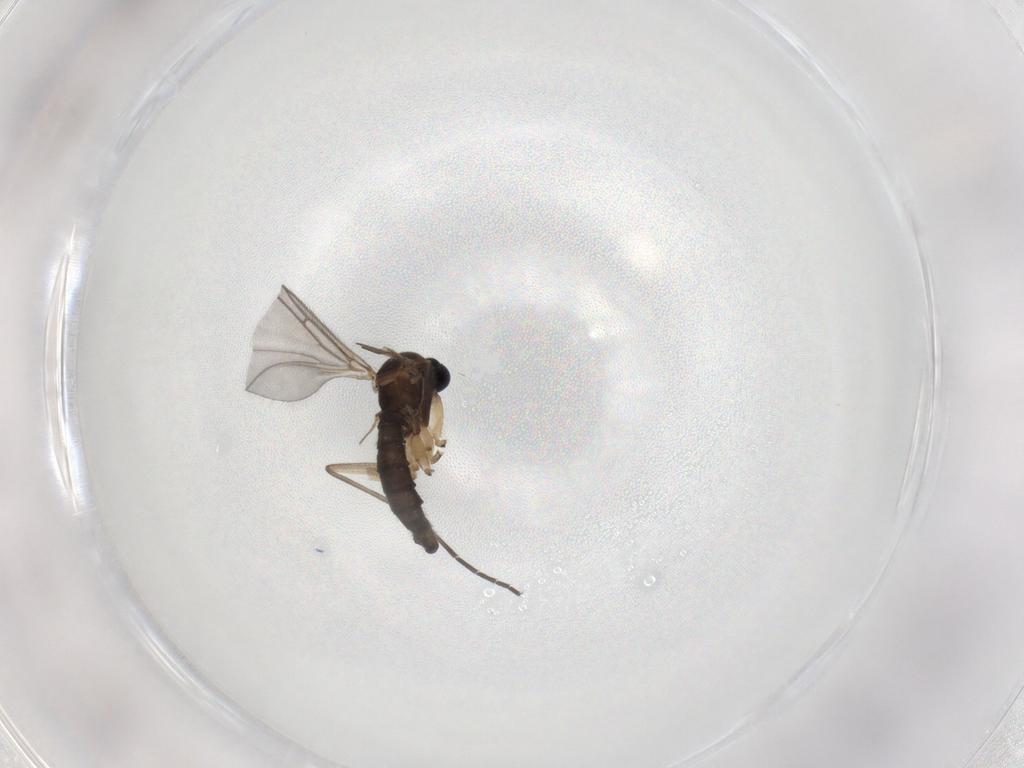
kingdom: Animalia
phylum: Arthropoda
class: Insecta
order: Diptera
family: Sciaridae
